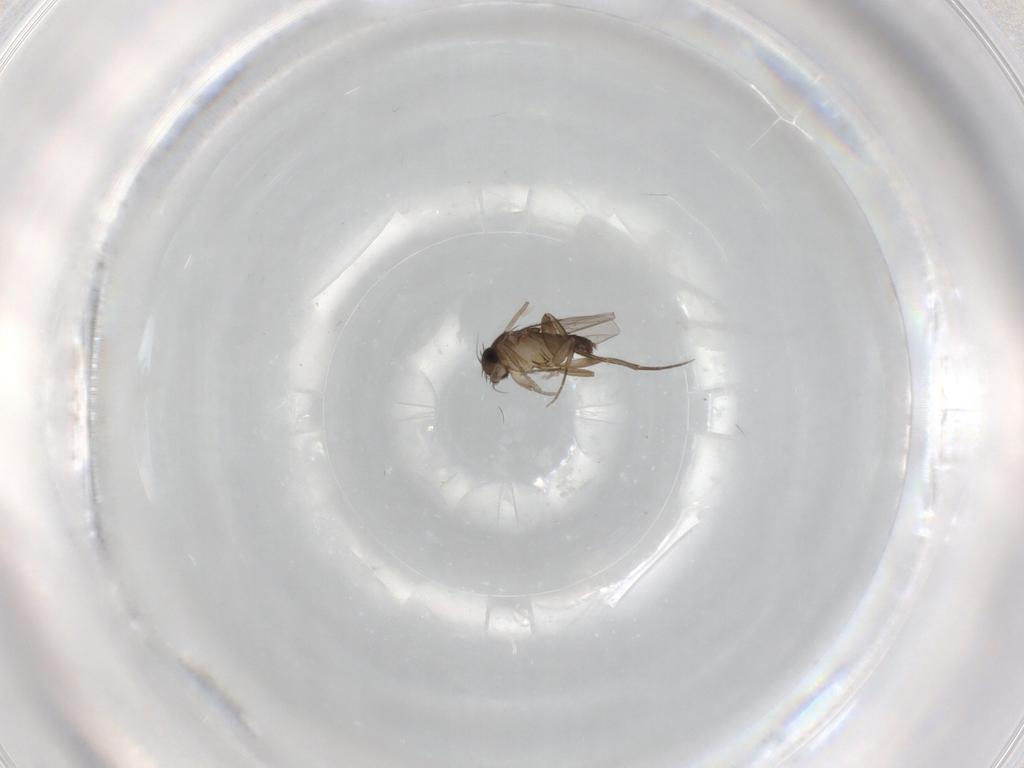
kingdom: Animalia
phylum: Arthropoda
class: Insecta
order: Diptera
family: Phoridae
